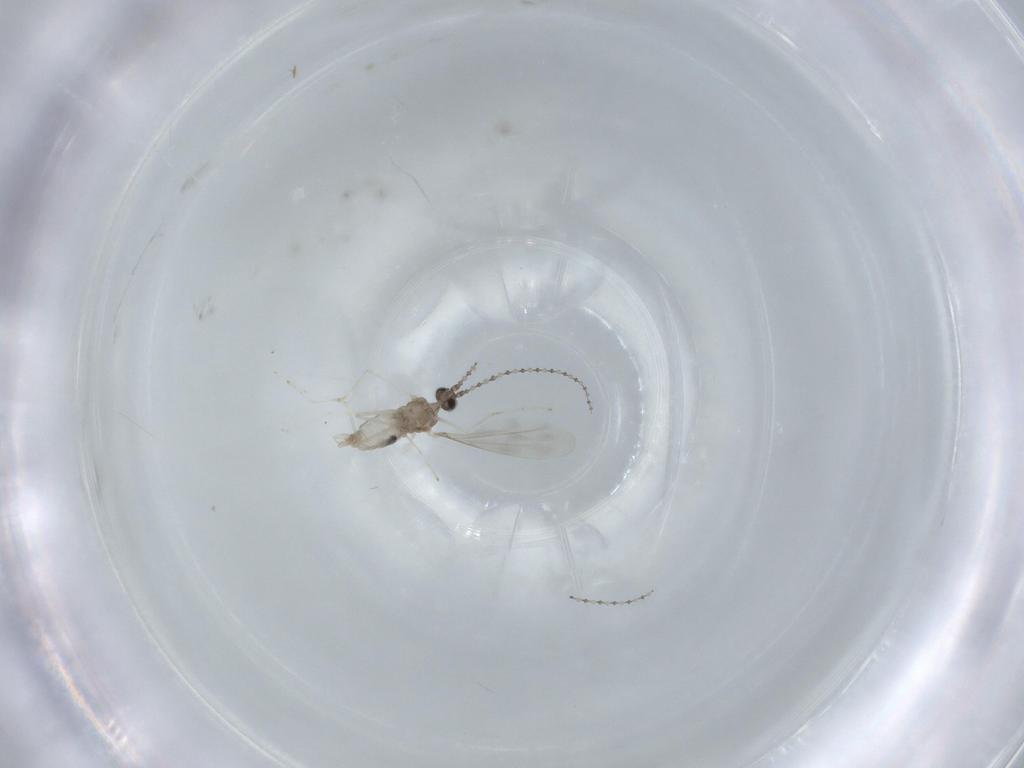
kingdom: Animalia
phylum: Arthropoda
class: Insecta
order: Diptera
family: Cecidomyiidae
